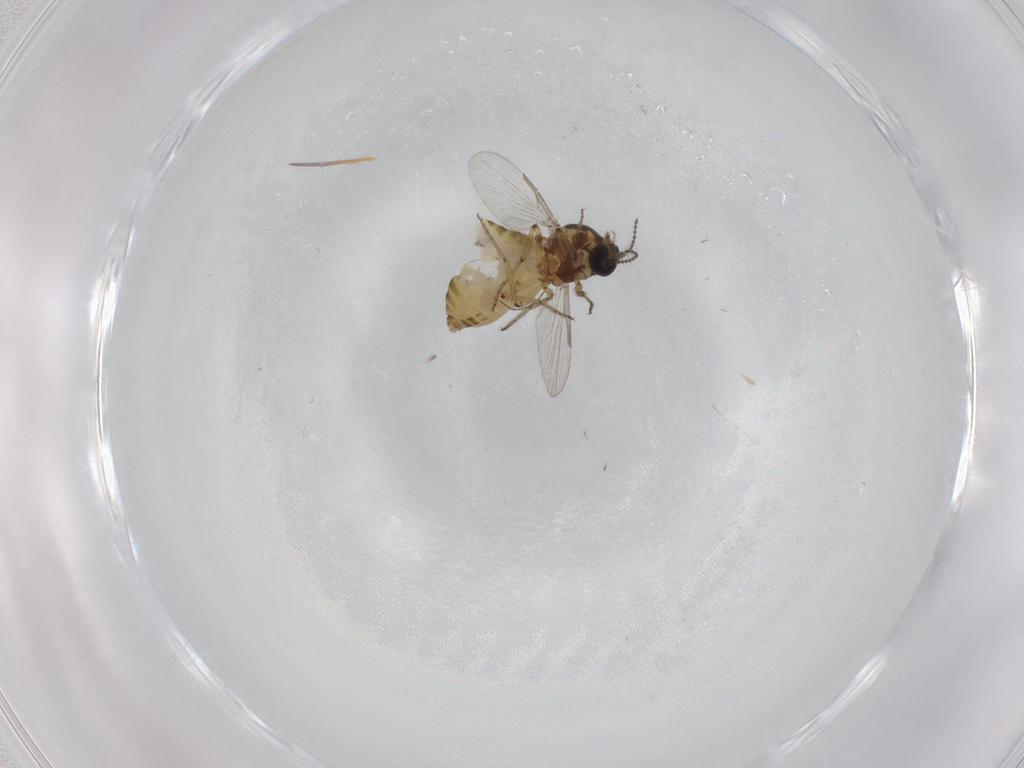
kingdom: Animalia
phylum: Arthropoda
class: Insecta
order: Diptera
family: Ceratopogonidae
